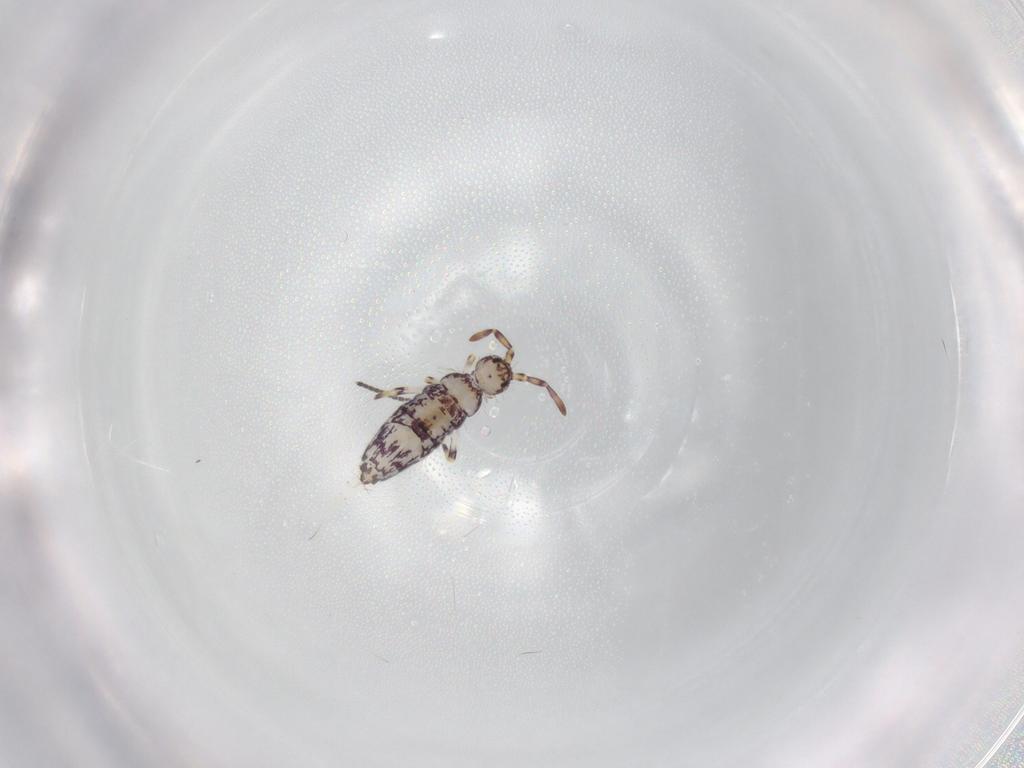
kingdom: Animalia
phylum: Arthropoda
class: Collembola
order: Entomobryomorpha
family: Entomobryidae
